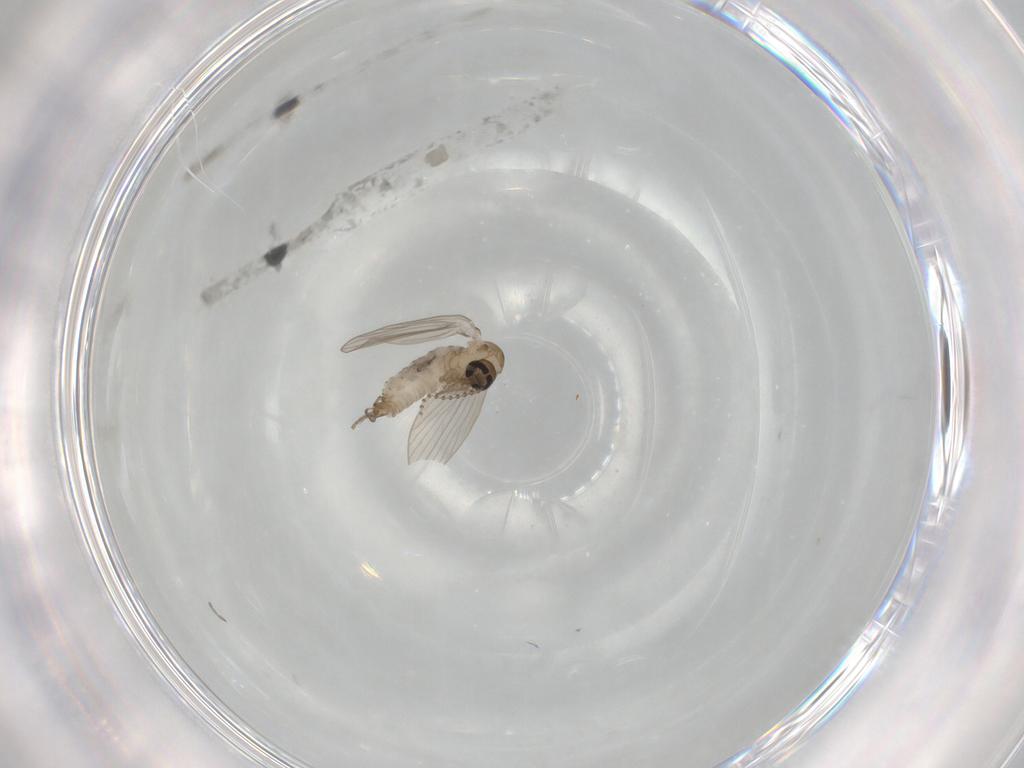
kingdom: Animalia
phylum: Arthropoda
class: Insecta
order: Diptera
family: Psychodidae
